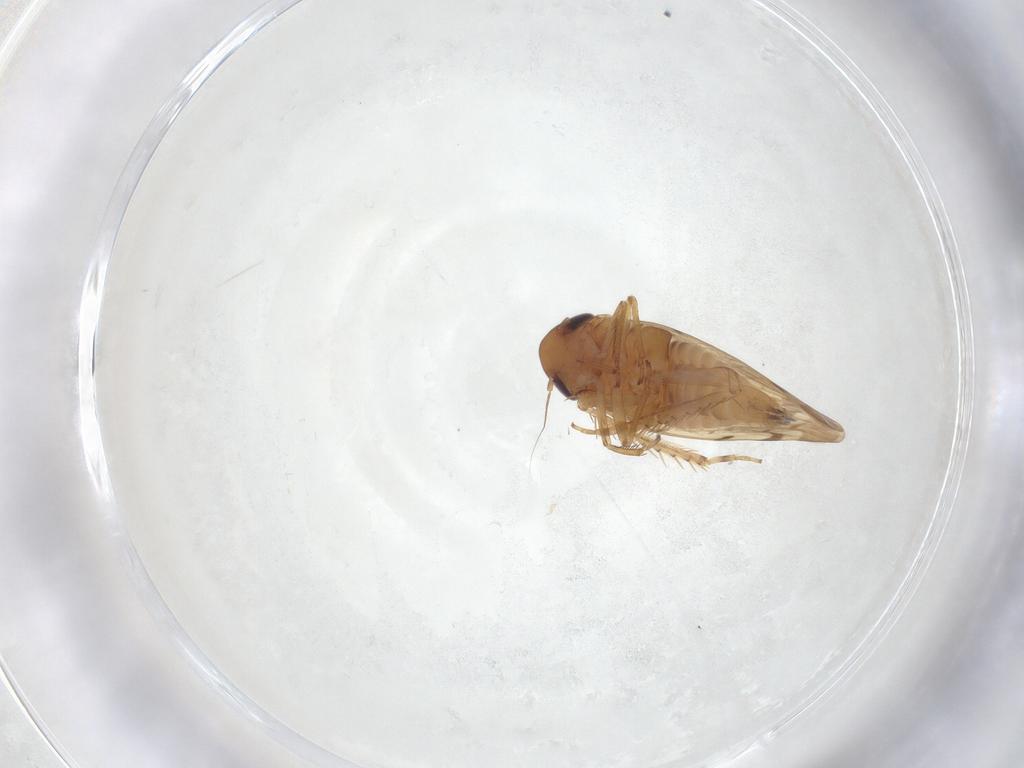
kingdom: Animalia
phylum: Arthropoda
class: Insecta
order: Hemiptera
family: Cicadellidae
